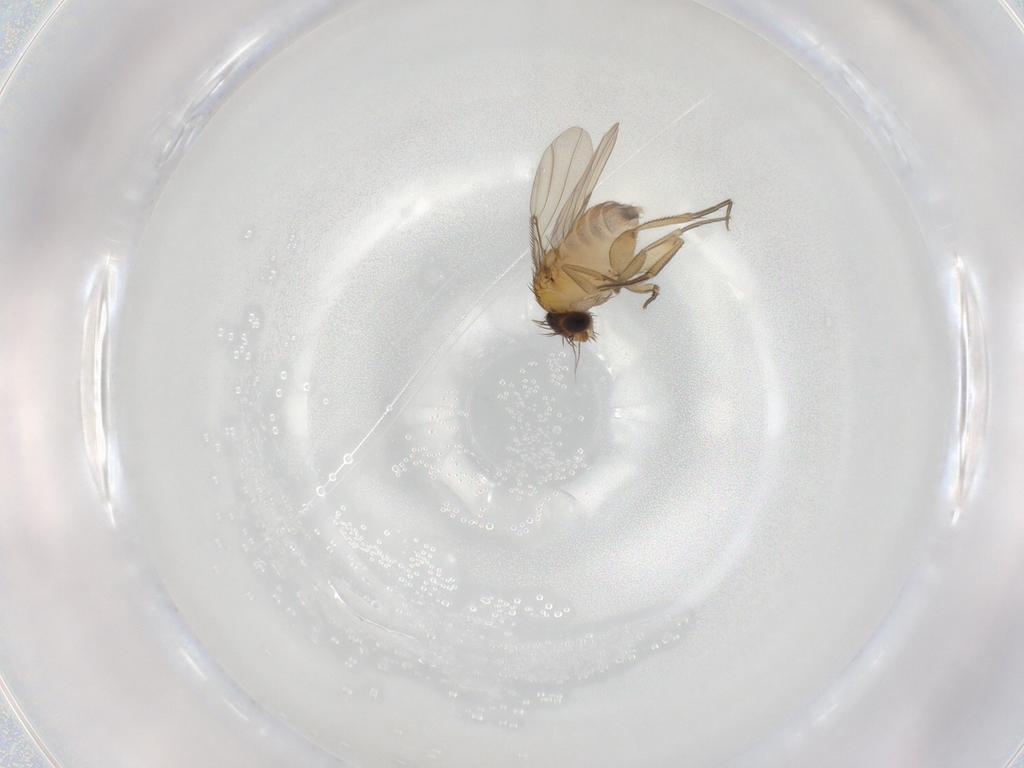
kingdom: Animalia
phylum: Arthropoda
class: Insecta
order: Diptera
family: Phoridae
